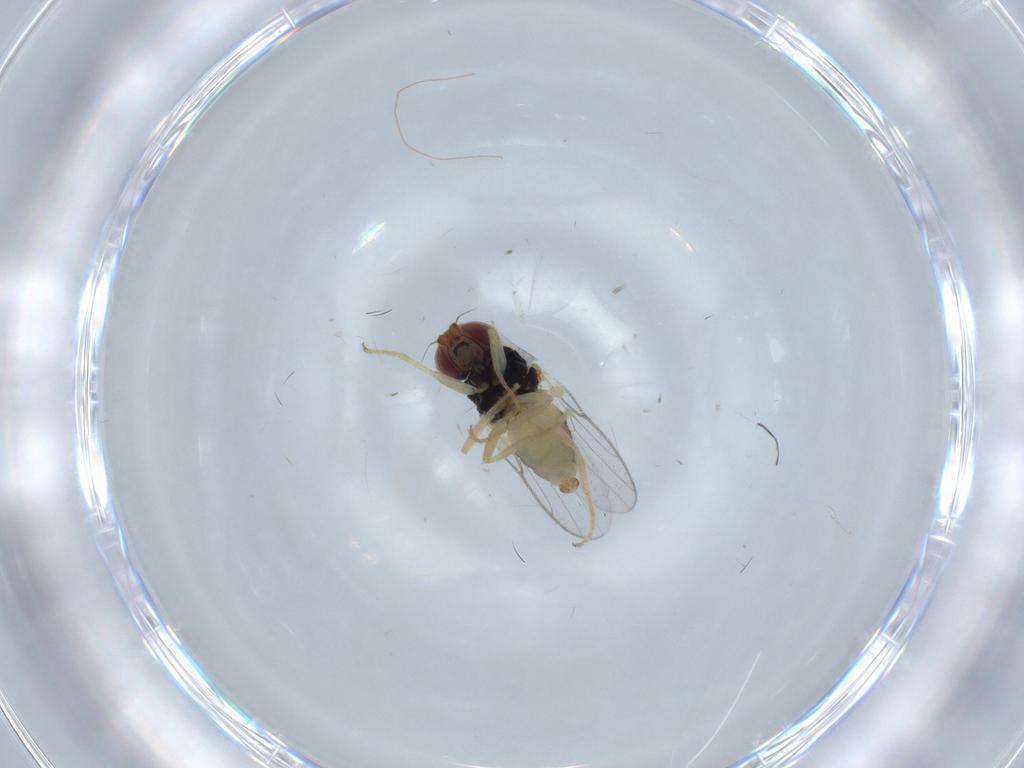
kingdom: Animalia
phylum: Arthropoda
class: Insecta
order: Diptera
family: Chloropidae
